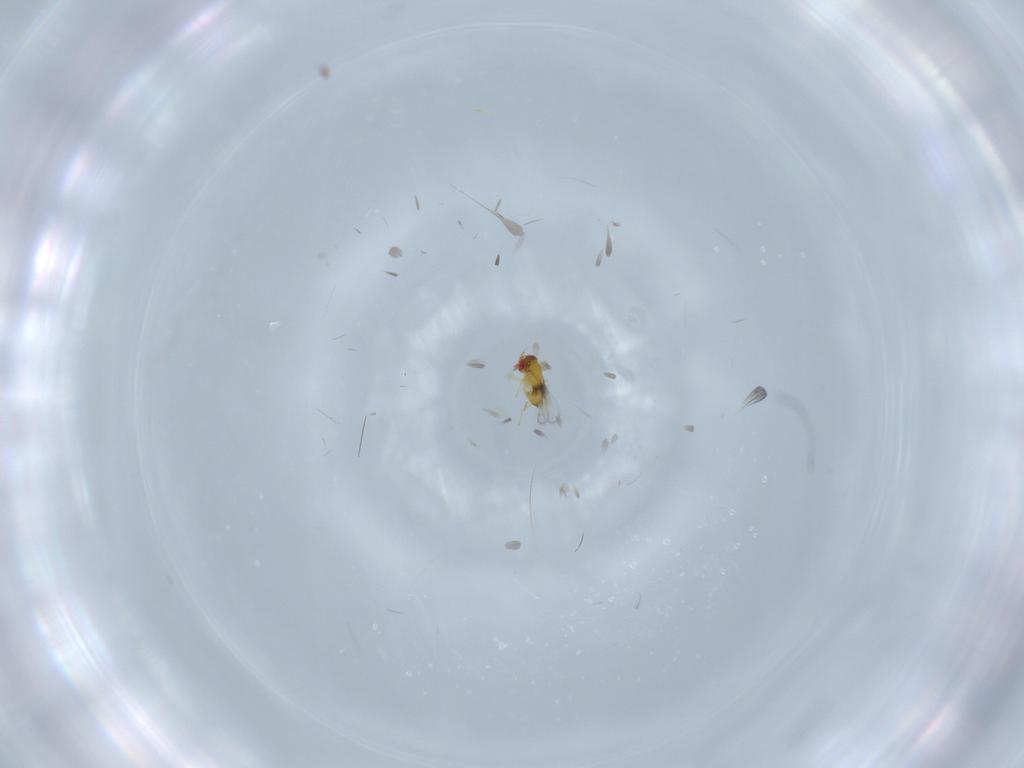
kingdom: Animalia
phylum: Arthropoda
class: Insecta
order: Hymenoptera
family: Trichogrammatidae
